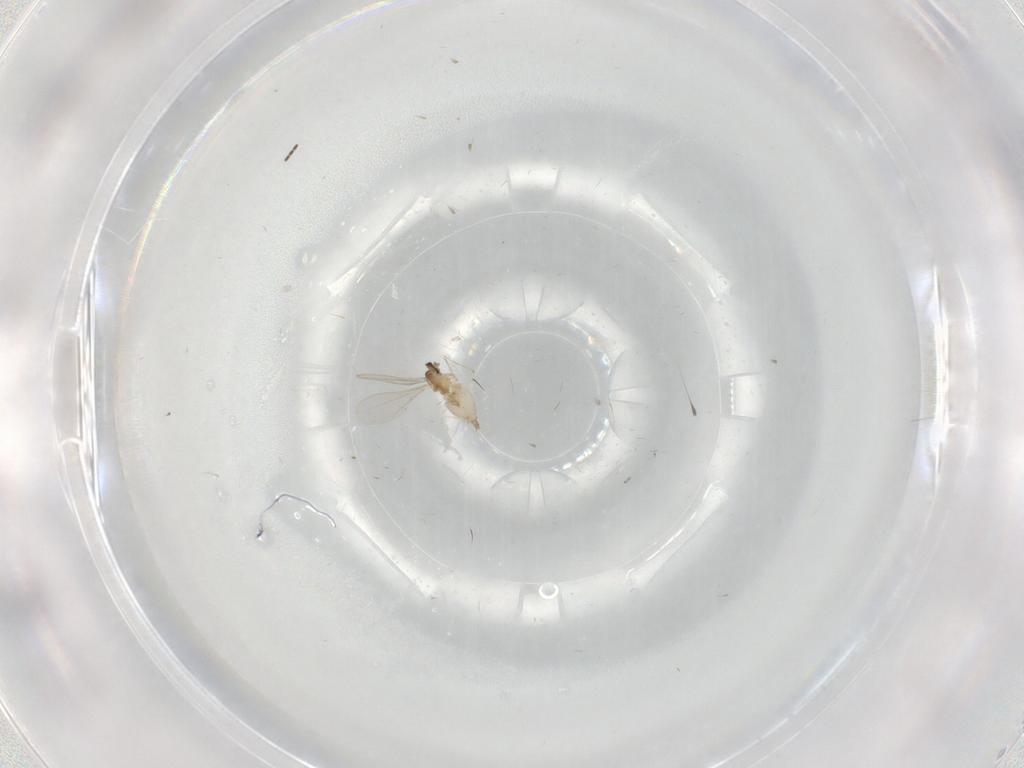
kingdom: Animalia
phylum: Arthropoda
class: Insecta
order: Diptera
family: Cecidomyiidae
